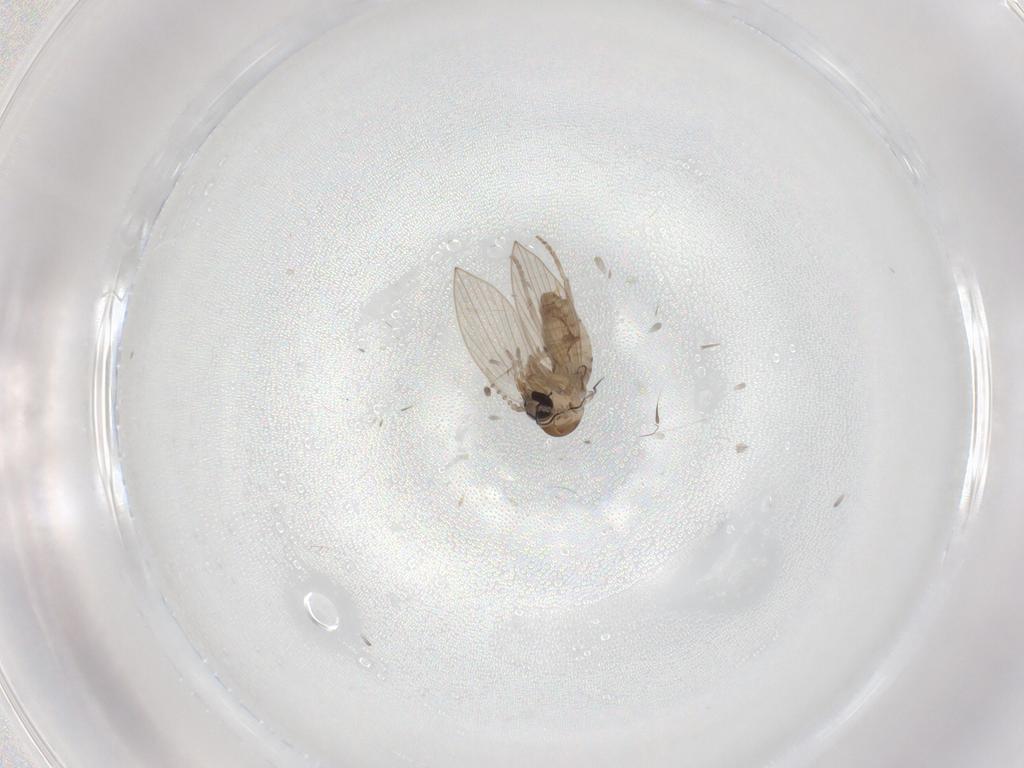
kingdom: Animalia
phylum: Arthropoda
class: Insecta
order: Diptera
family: Psychodidae
